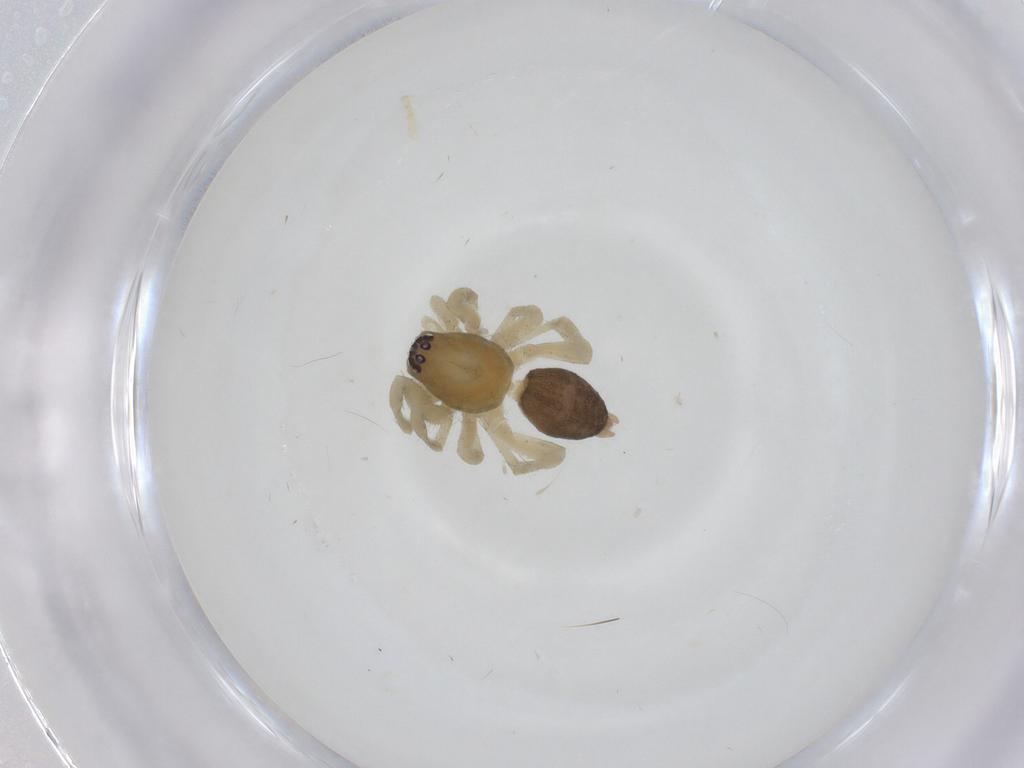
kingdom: Animalia
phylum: Arthropoda
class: Arachnida
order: Araneae
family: Anyphaenidae
